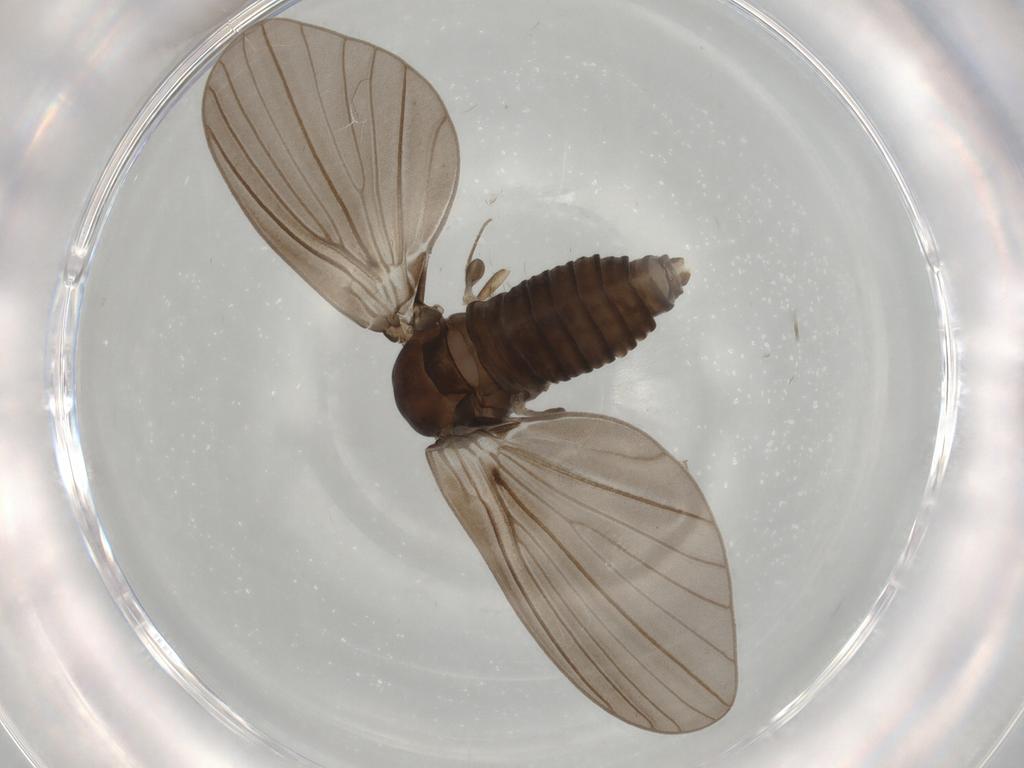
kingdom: Animalia
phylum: Arthropoda
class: Insecta
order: Diptera
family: Psychodidae
